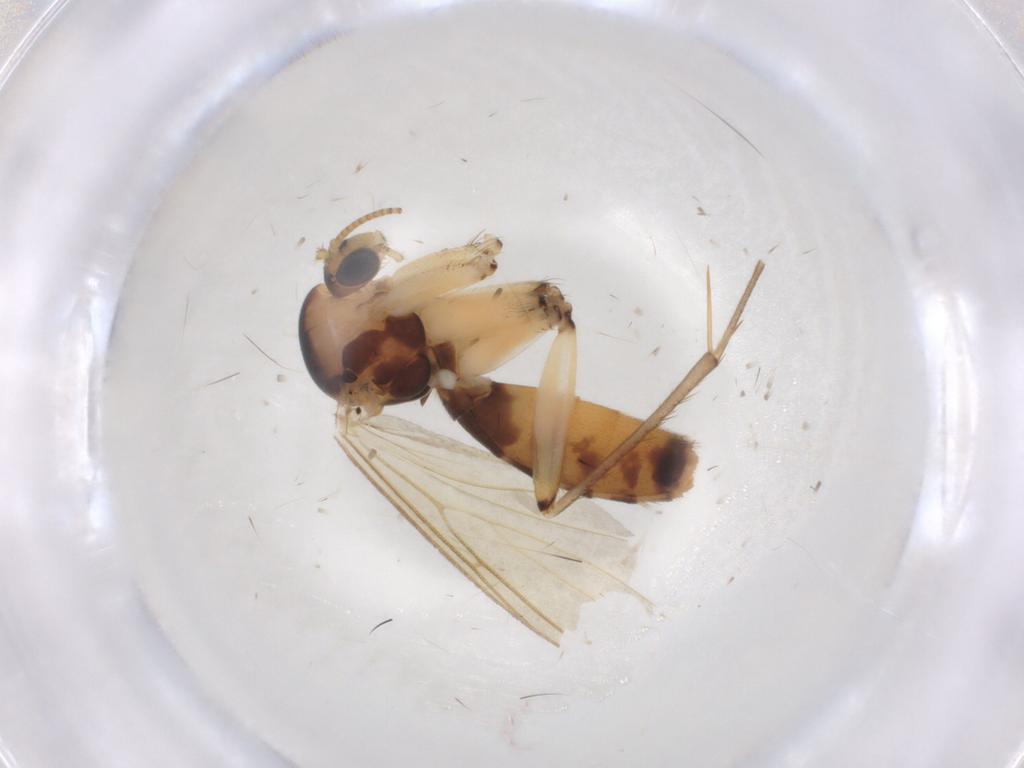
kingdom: Animalia
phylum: Arthropoda
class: Insecta
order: Diptera
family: Mycetophilidae
